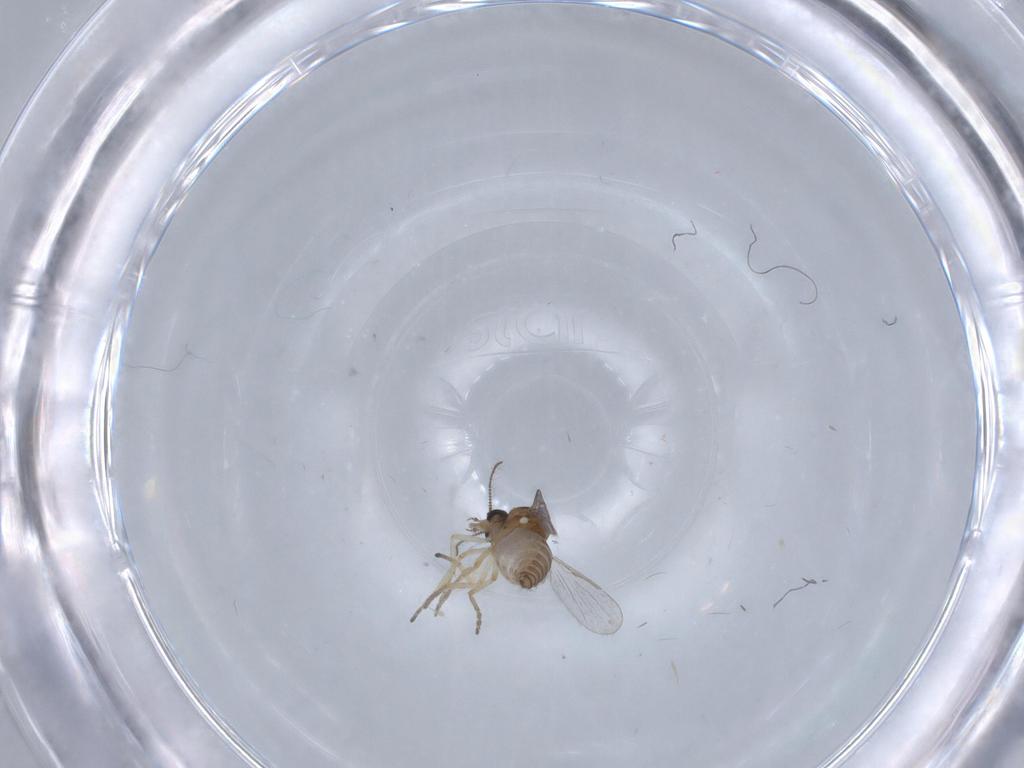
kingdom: Animalia
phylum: Arthropoda
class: Insecta
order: Diptera
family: Ceratopogonidae
